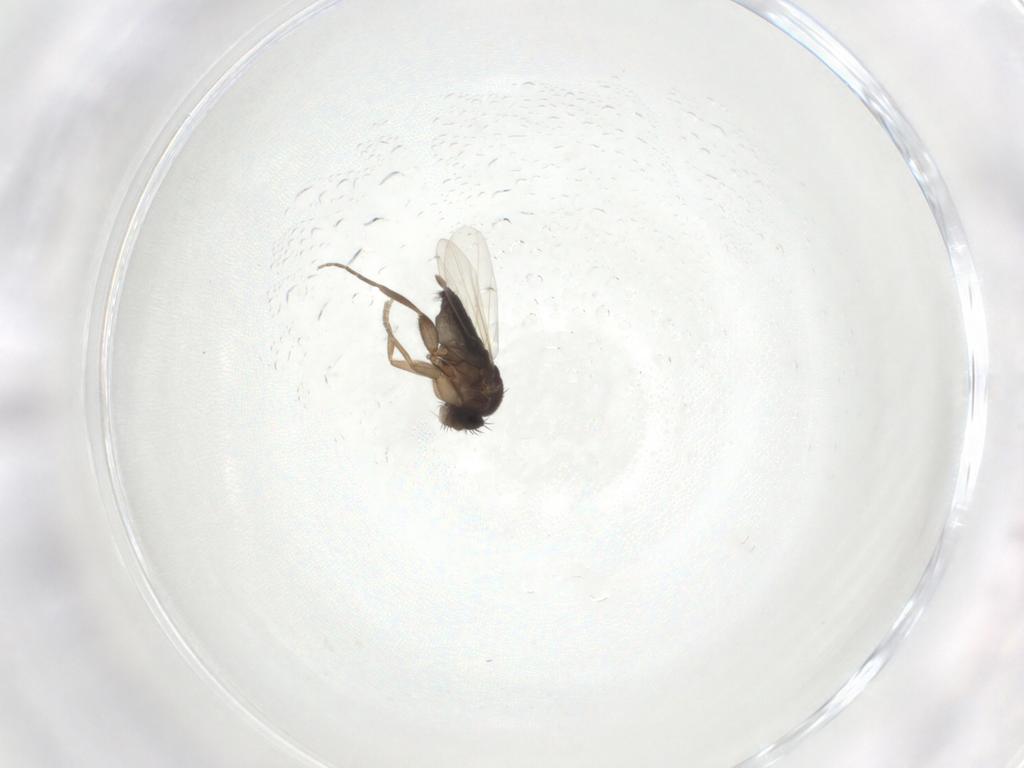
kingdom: Animalia
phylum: Arthropoda
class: Insecta
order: Diptera
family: Phoridae
